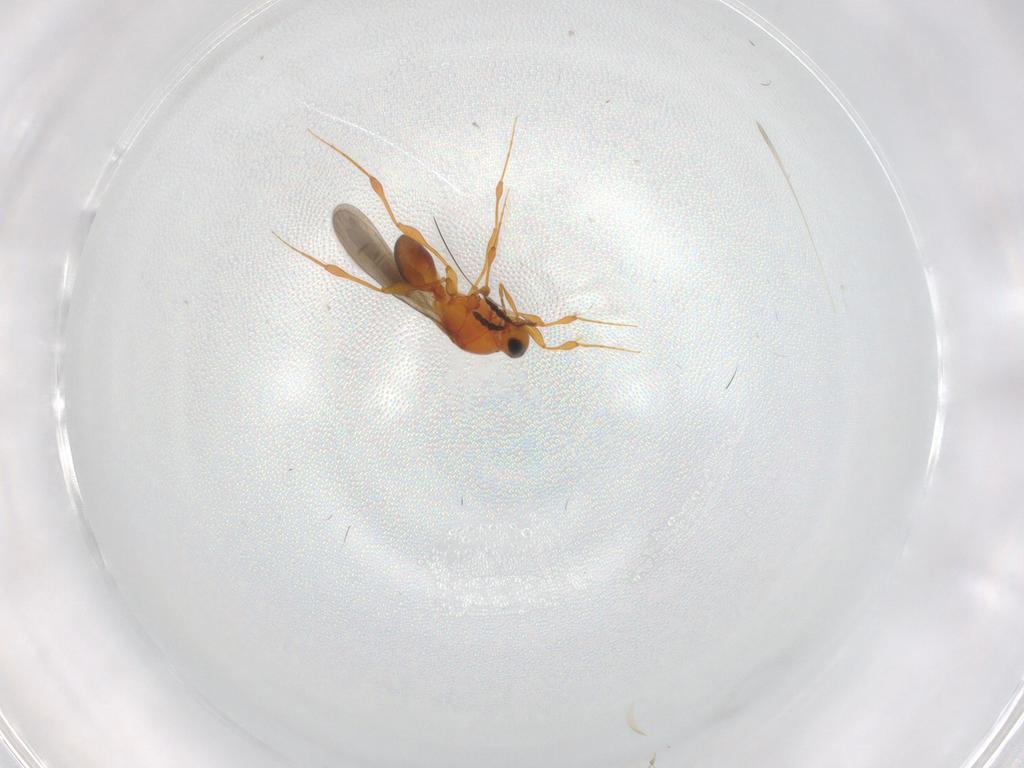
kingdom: Animalia
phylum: Arthropoda
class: Insecta
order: Hymenoptera
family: Platygastridae
